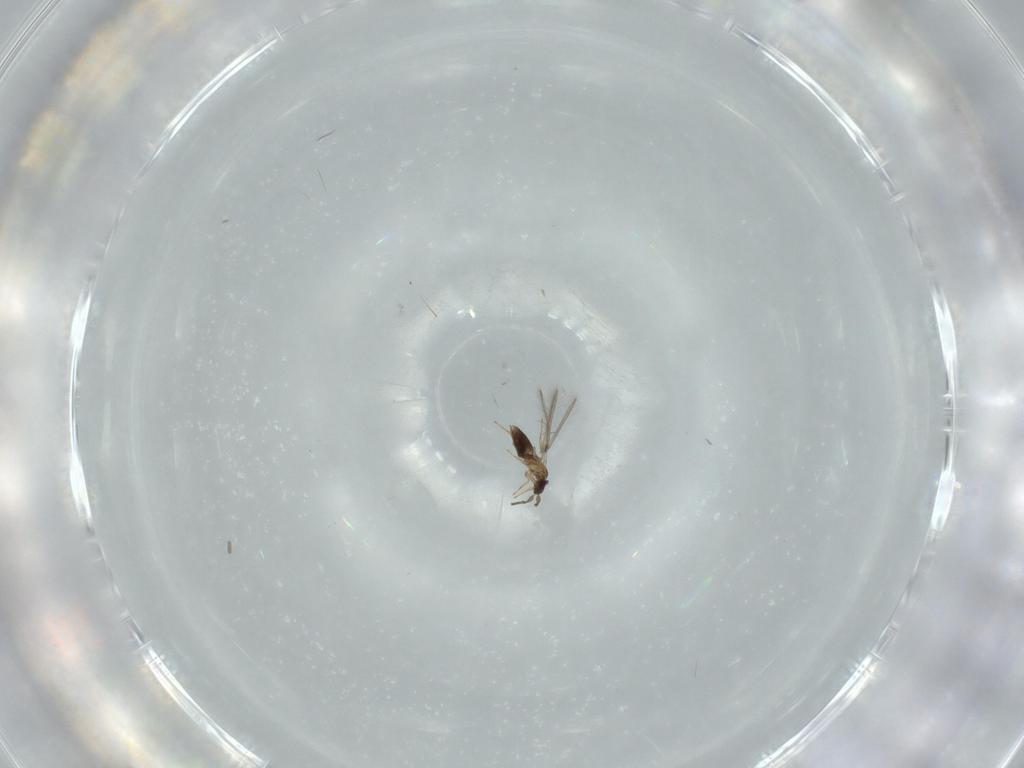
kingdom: Animalia
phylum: Arthropoda
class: Insecta
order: Hymenoptera
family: Mymaridae
